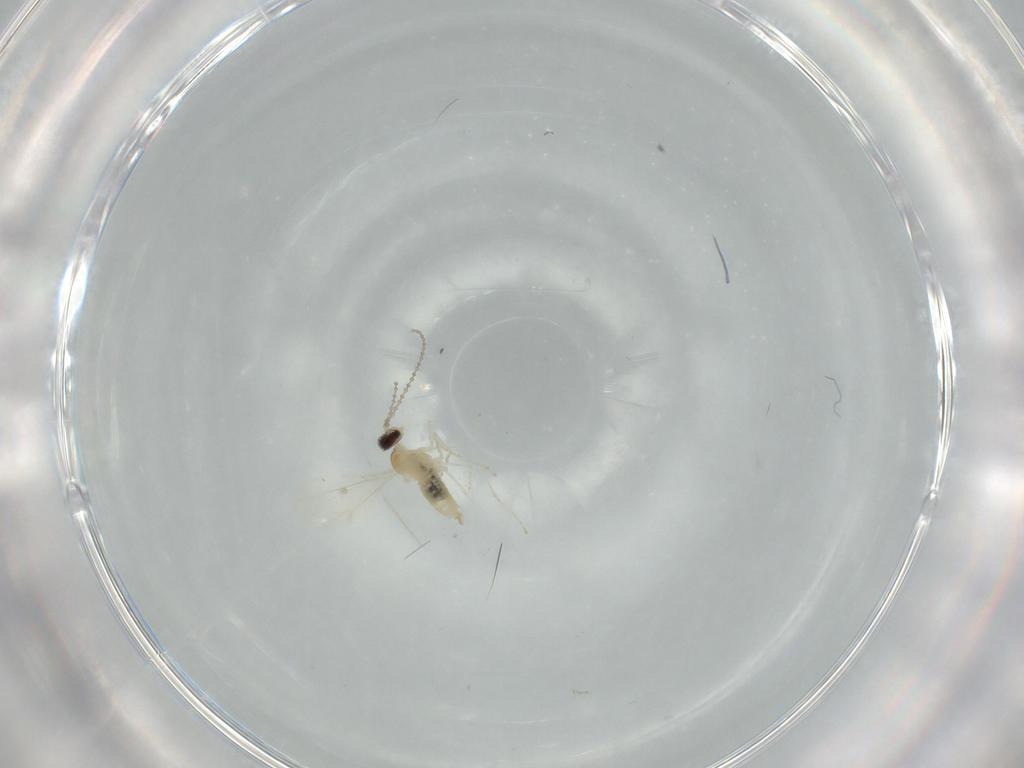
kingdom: Animalia
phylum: Arthropoda
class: Insecta
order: Diptera
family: Cecidomyiidae
